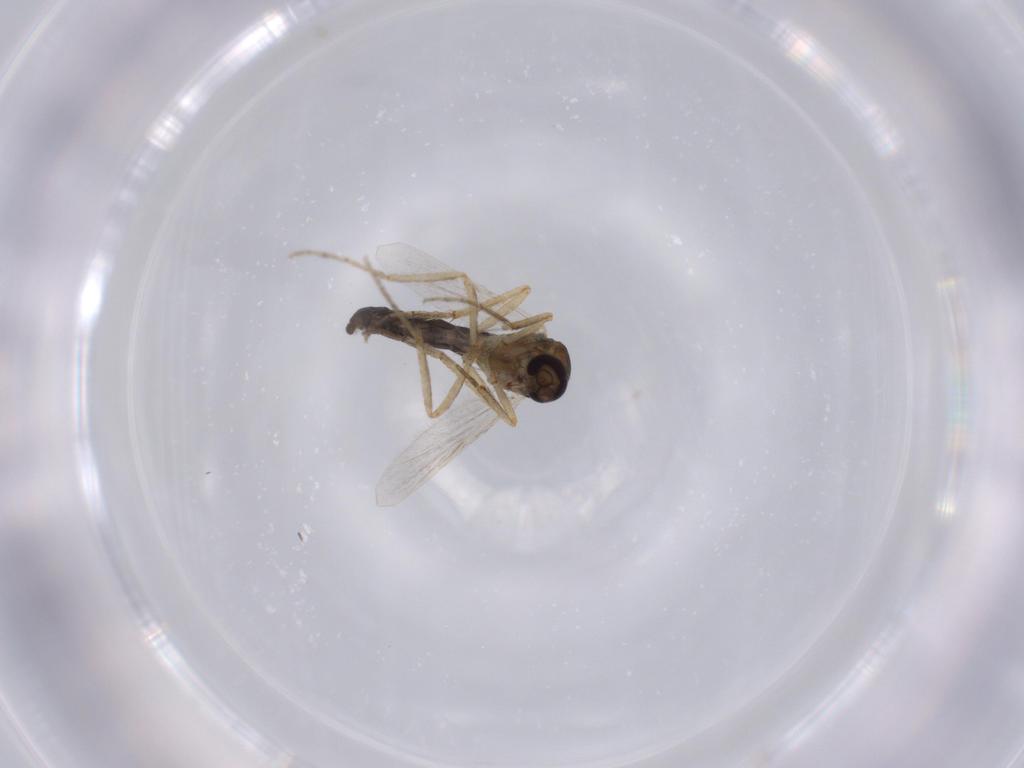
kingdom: Animalia
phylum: Arthropoda
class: Insecta
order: Diptera
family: Ceratopogonidae
